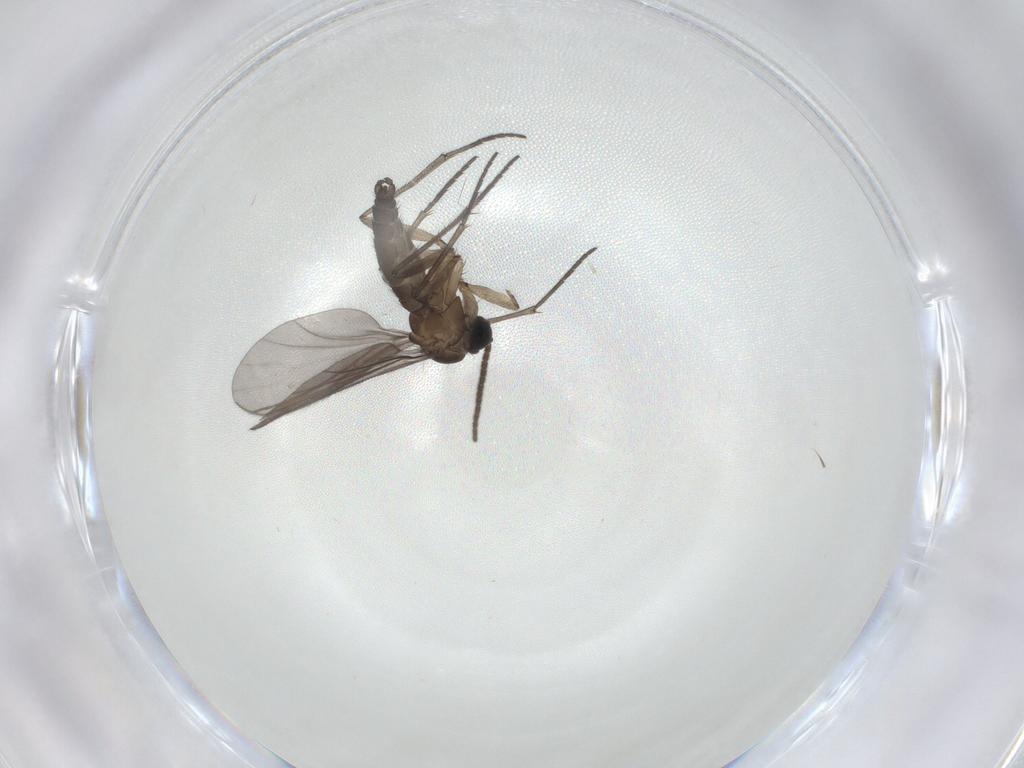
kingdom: Animalia
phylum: Arthropoda
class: Insecta
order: Diptera
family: Sciaridae
